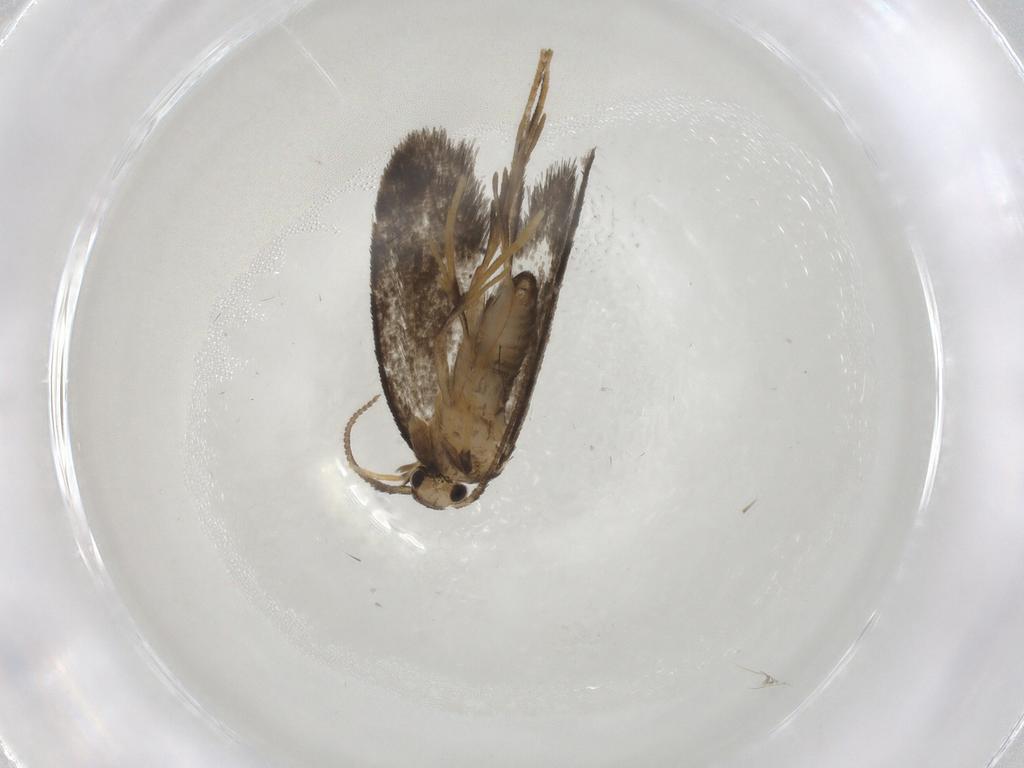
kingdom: Animalia
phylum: Arthropoda
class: Insecta
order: Lepidoptera
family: Psychidae
